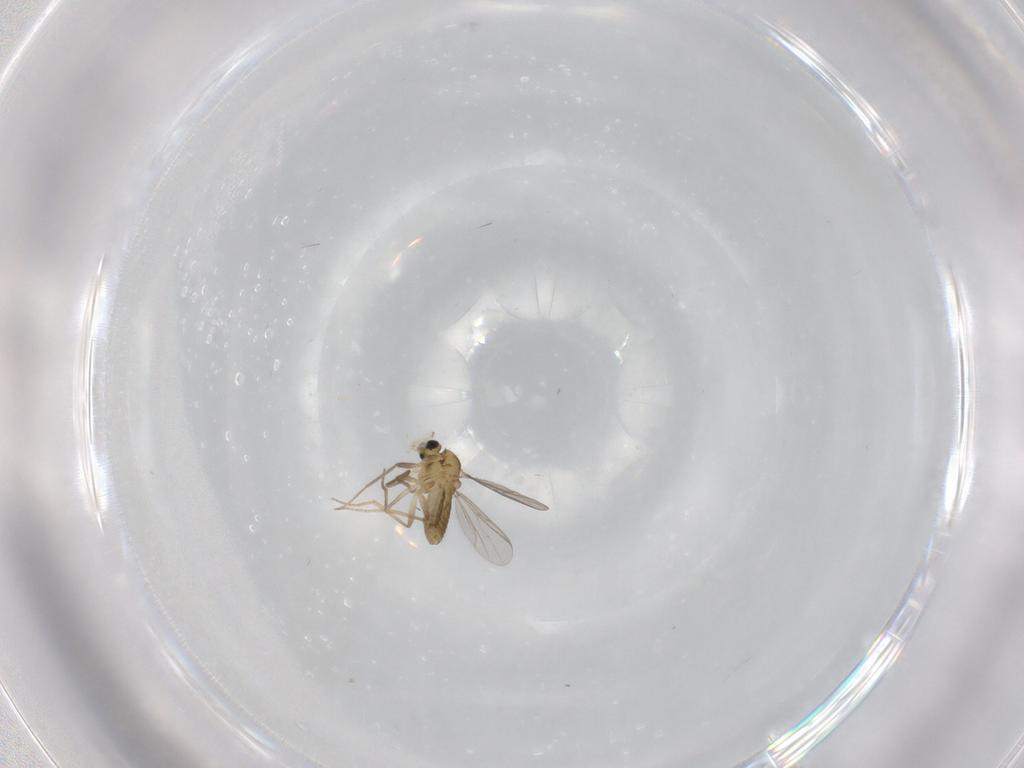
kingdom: Animalia
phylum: Arthropoda
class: Insecta
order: Diptera
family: Chironomidae
